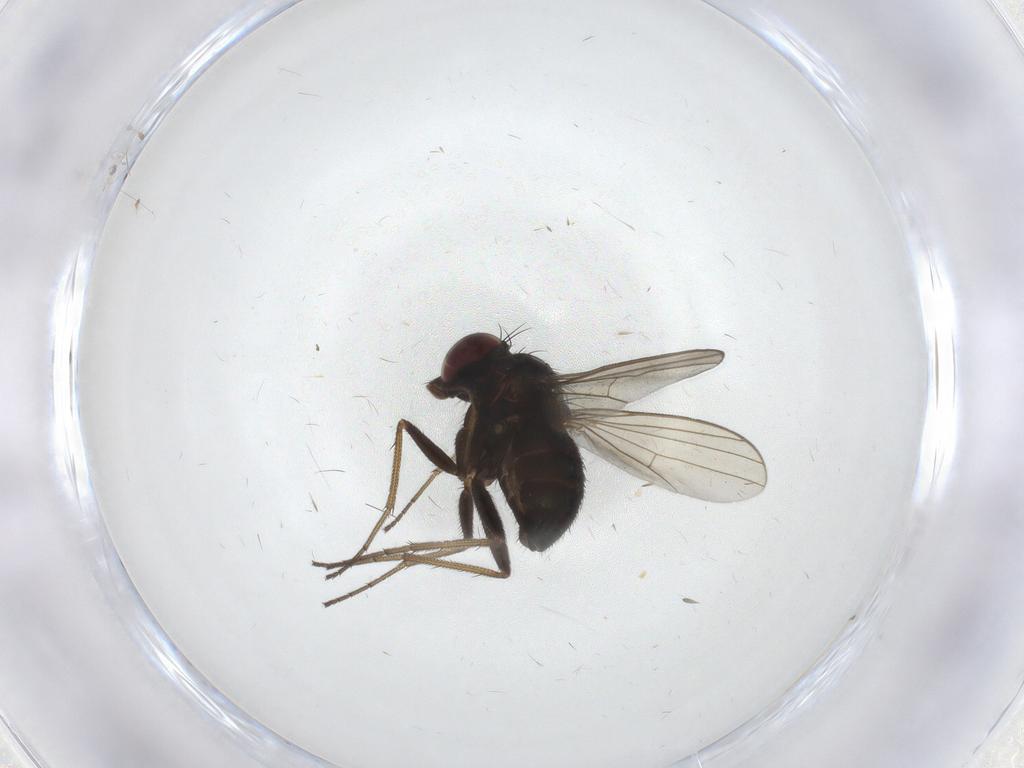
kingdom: Animalia
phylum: Arthropoda
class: Insecta
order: Diptera
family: Dolichopodidae
